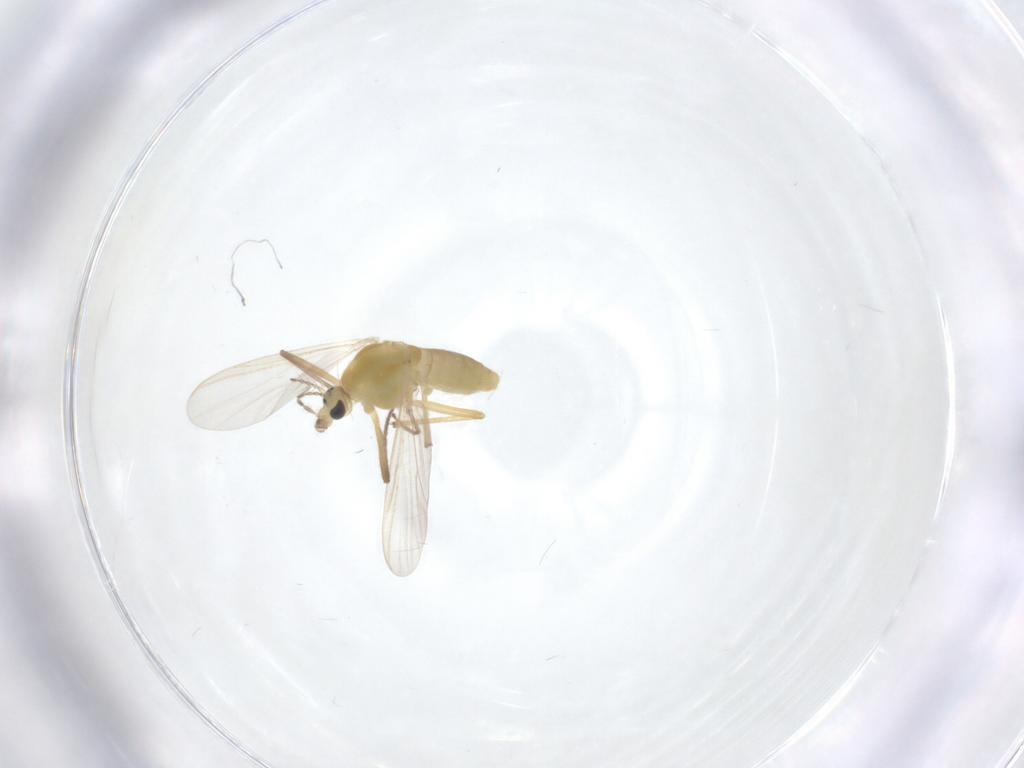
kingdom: Animalia
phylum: Arthropoda
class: Insecta
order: Diptera
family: Chironomidae
